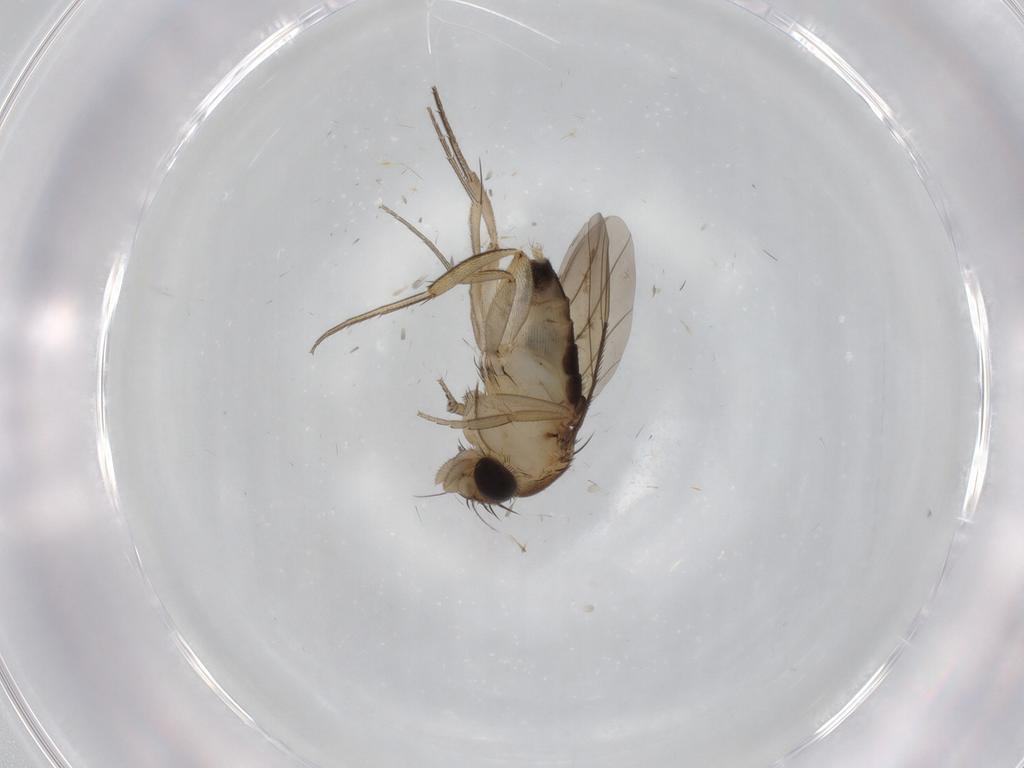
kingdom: Animalia
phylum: Arthropoda
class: Insecta
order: Diptera
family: Phoridae
